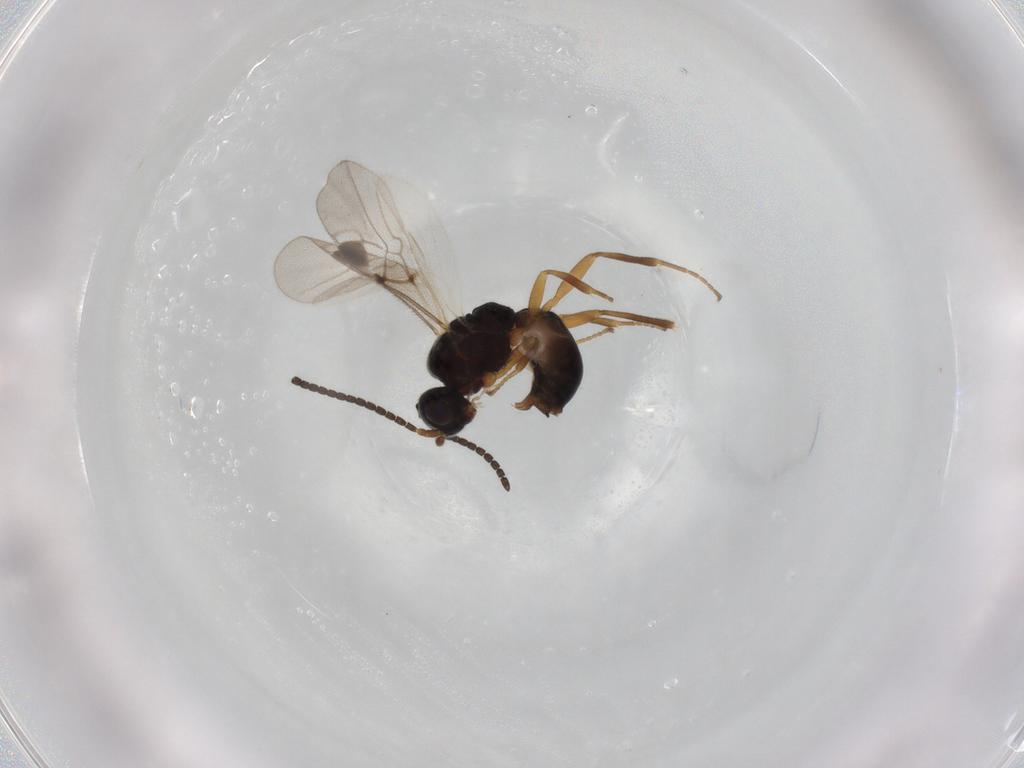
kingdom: Animalia
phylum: Arthropoda
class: Insecta
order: Hymenoptera
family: Braconidae
